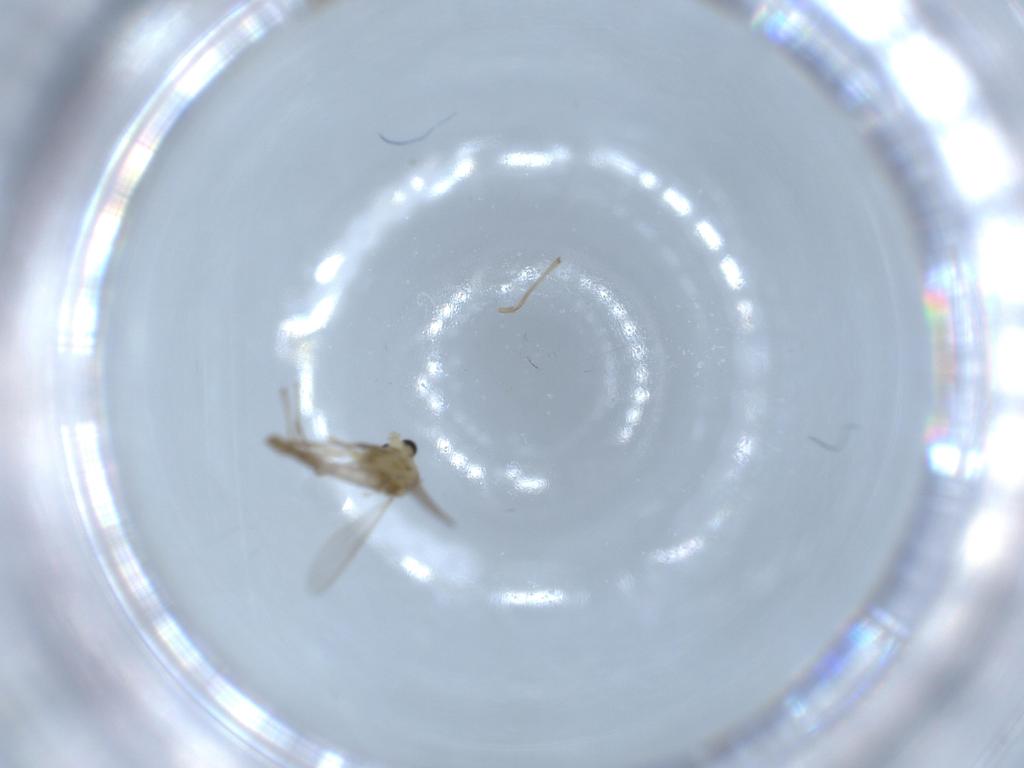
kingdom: Animalia
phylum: Arthropoda
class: Insecta
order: Diptera
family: Chironomidae
